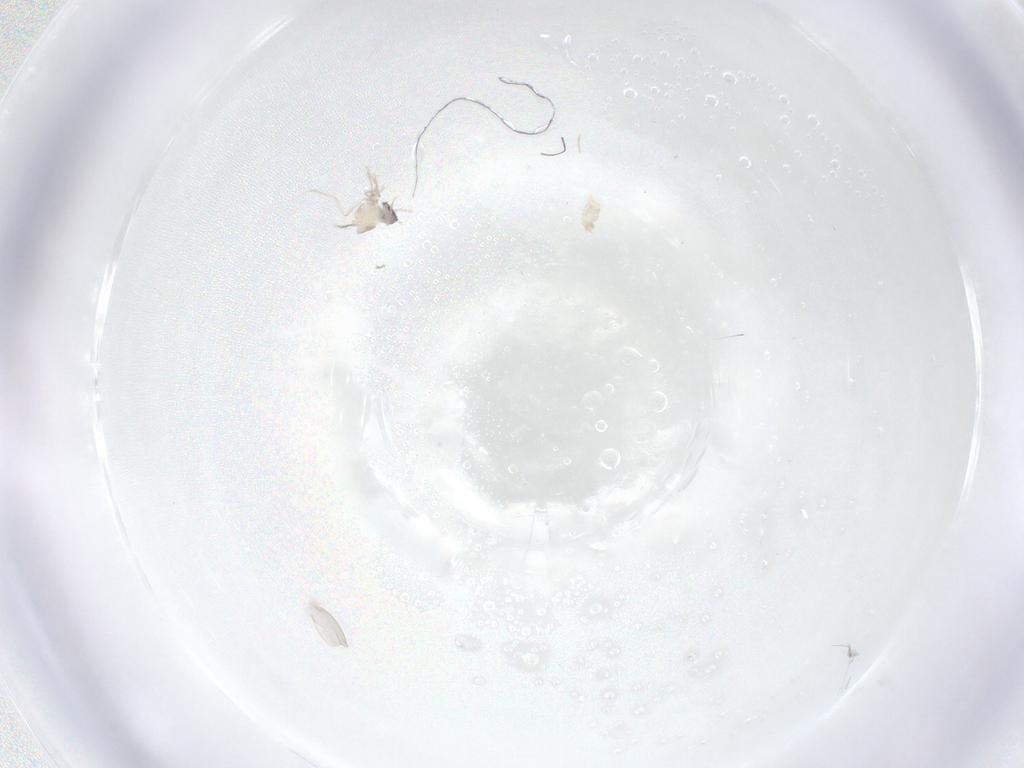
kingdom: Animalia
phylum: Arthropoda
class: Insecta
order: Diptera
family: Cecidomyiidae
